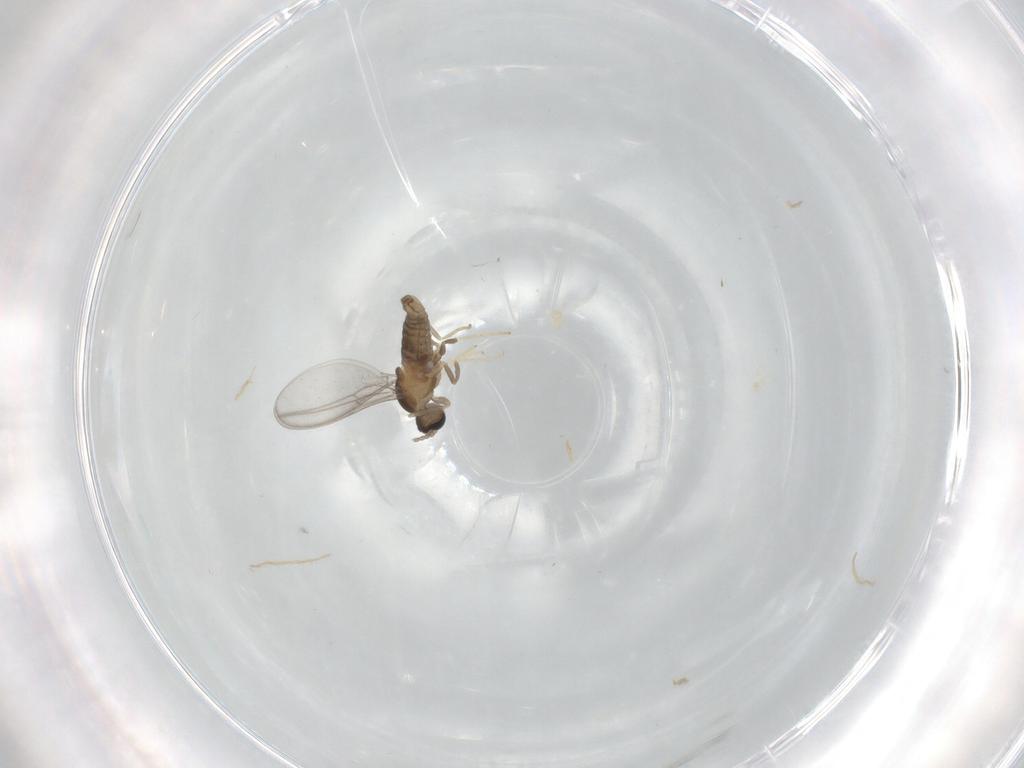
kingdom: Animalia
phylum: Arthropoda
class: Insecta
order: Diptera
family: Cecidomyiidae
